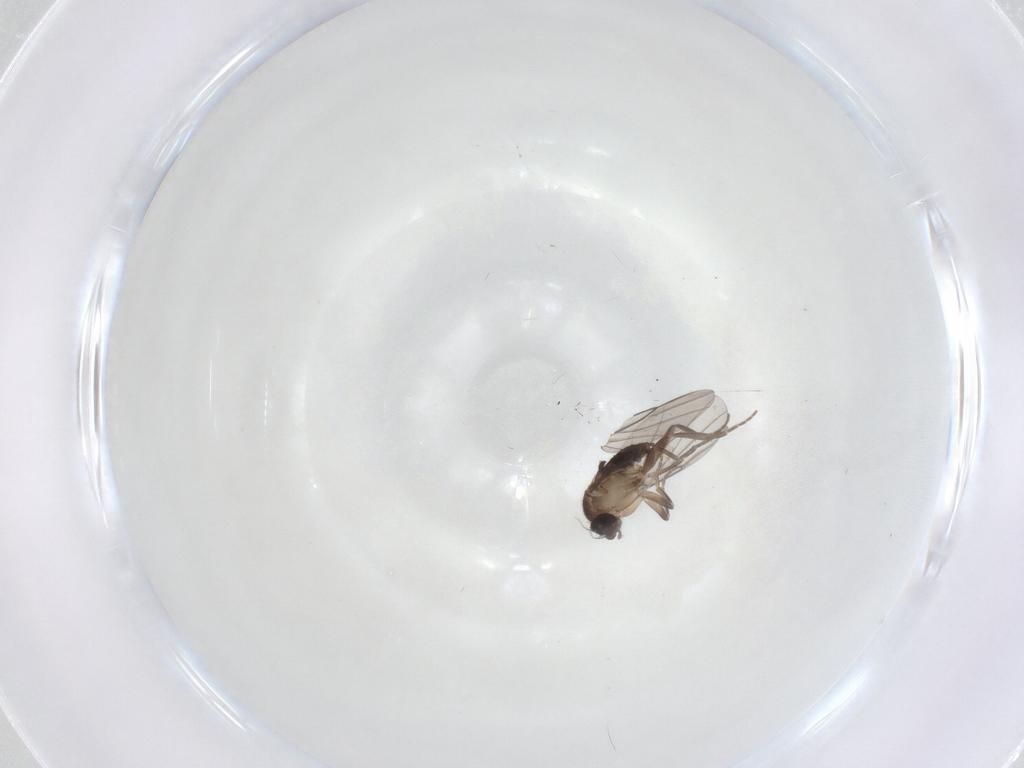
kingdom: Animalia
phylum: Arthropoda
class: Insecta
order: Diptera
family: Phoridae
